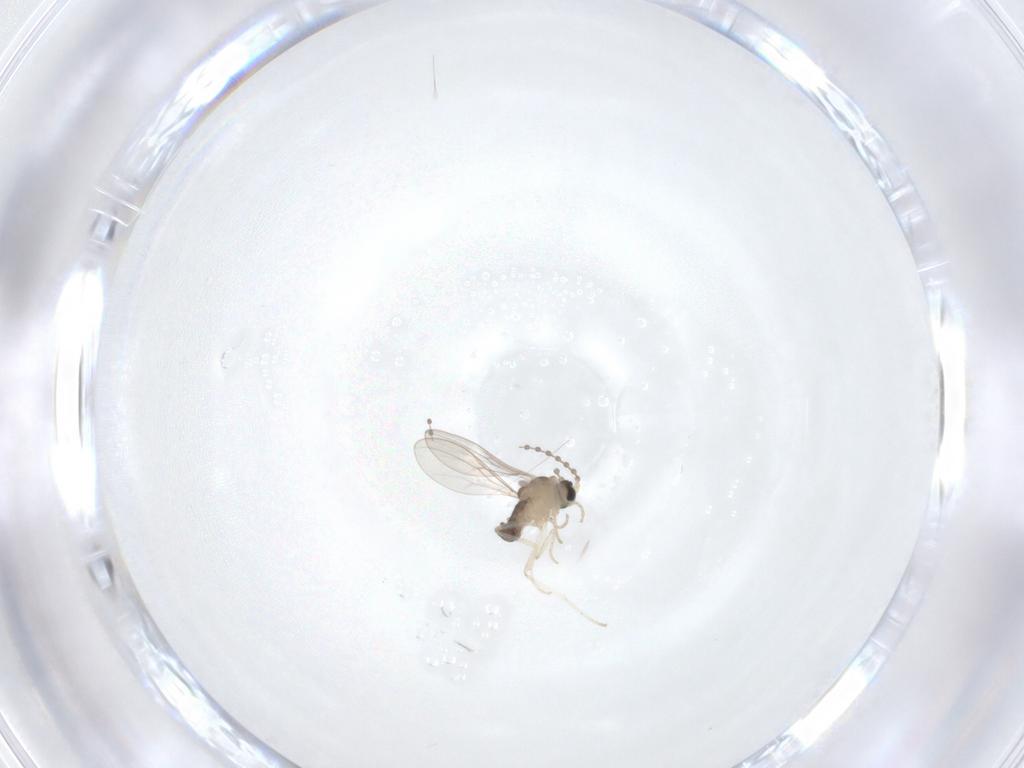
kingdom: Animalia
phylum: Arthropoda
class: Insecta
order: Diptera
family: Cecidomyiidae
